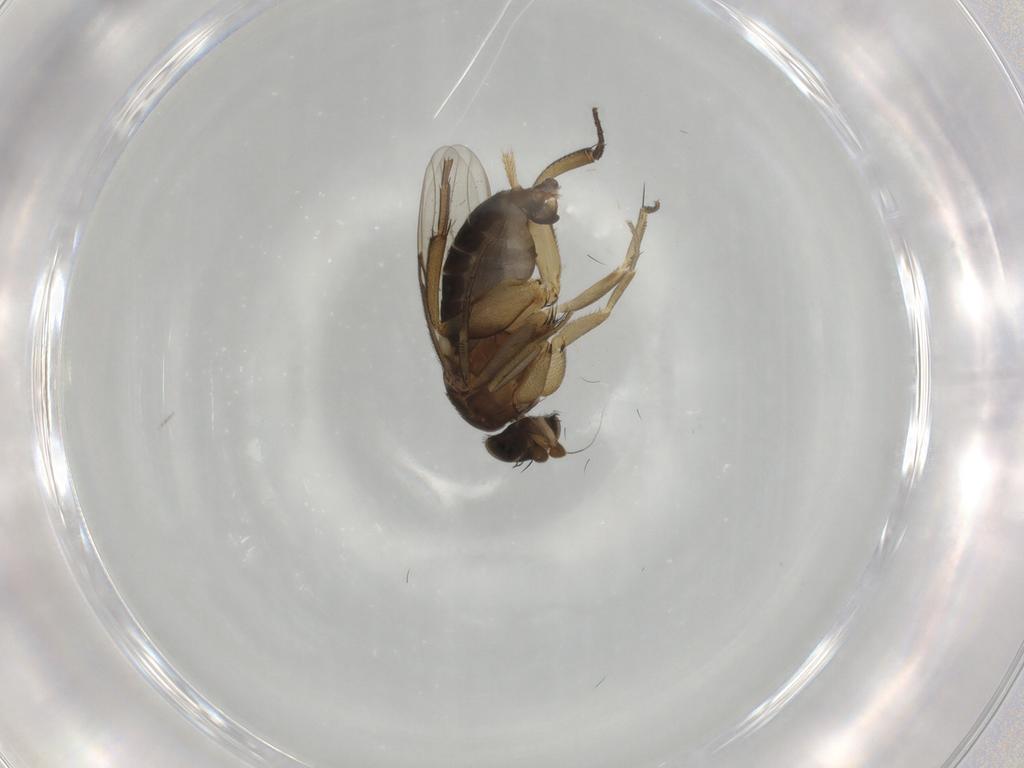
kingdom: Animalia
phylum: Arthropoda
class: Insecta
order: Diptera
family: Phoridae
